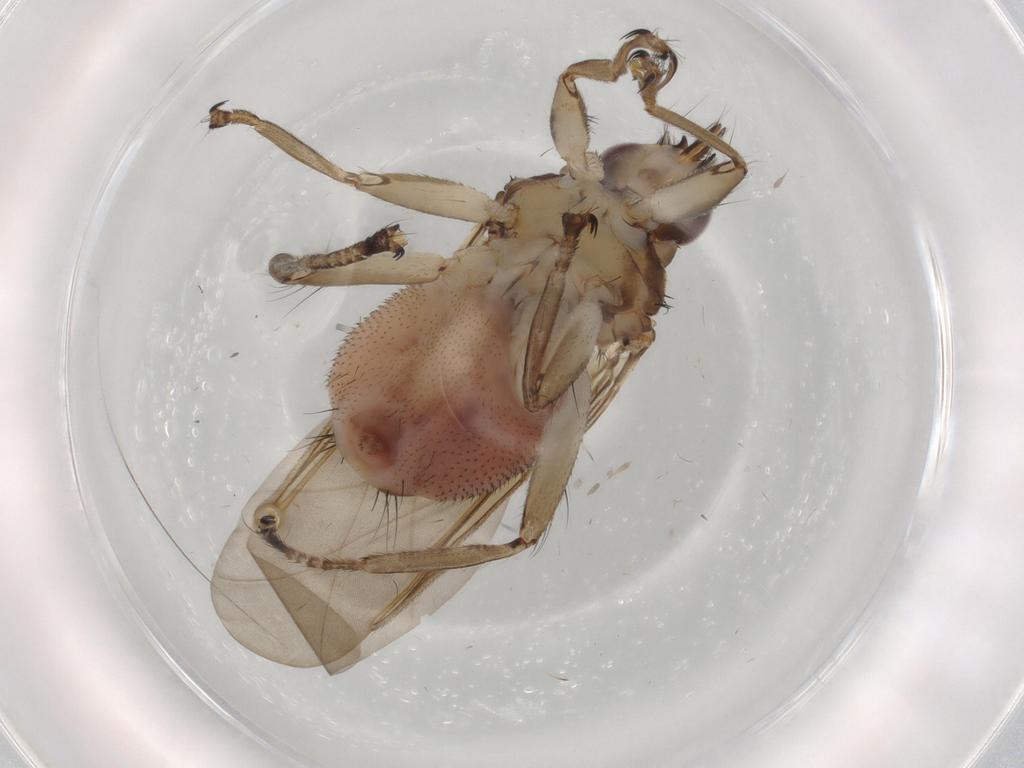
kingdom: Animalia
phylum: Arthropoda
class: Insecta
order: Diptera
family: Hippoboscidae
